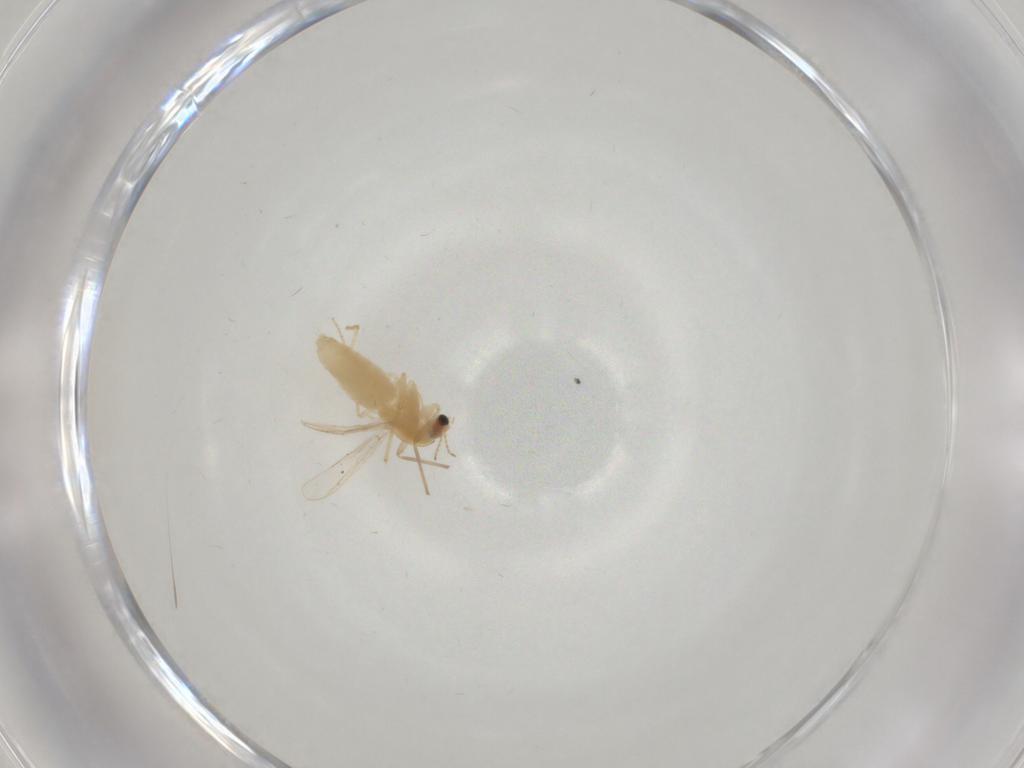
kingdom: Animalia
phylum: Arthropoda
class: Insecta
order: Diptera
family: Chironomidae
